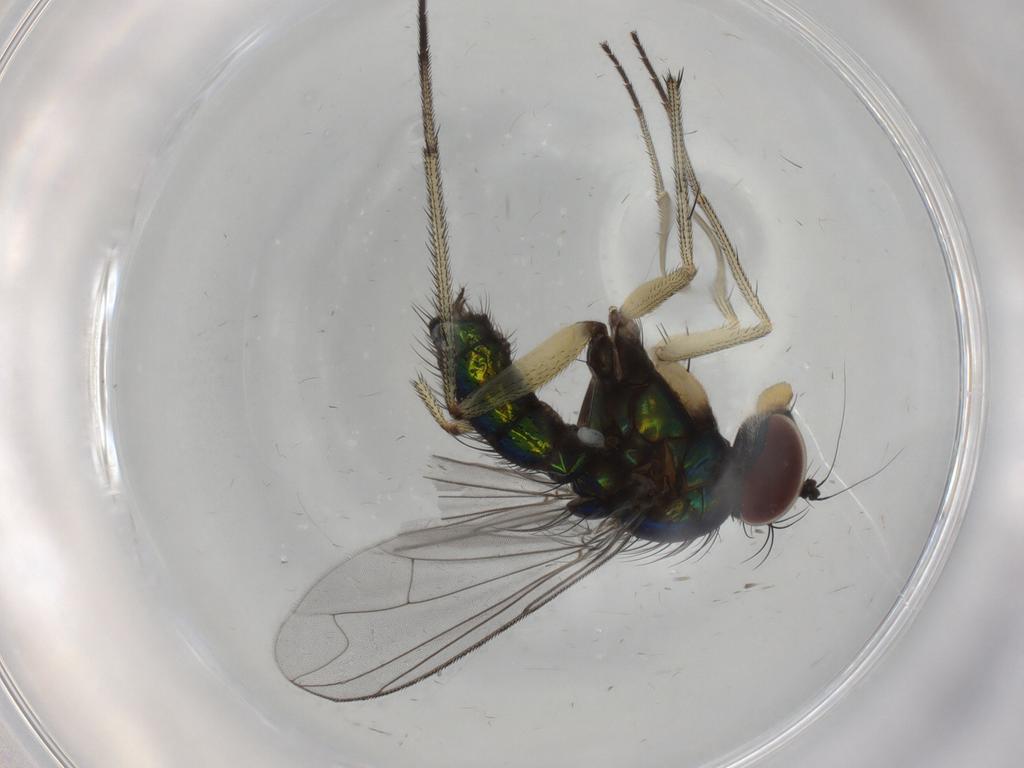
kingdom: Animalia
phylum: Arthropoda
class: Insecta
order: Diptera
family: Dolichopodidae
